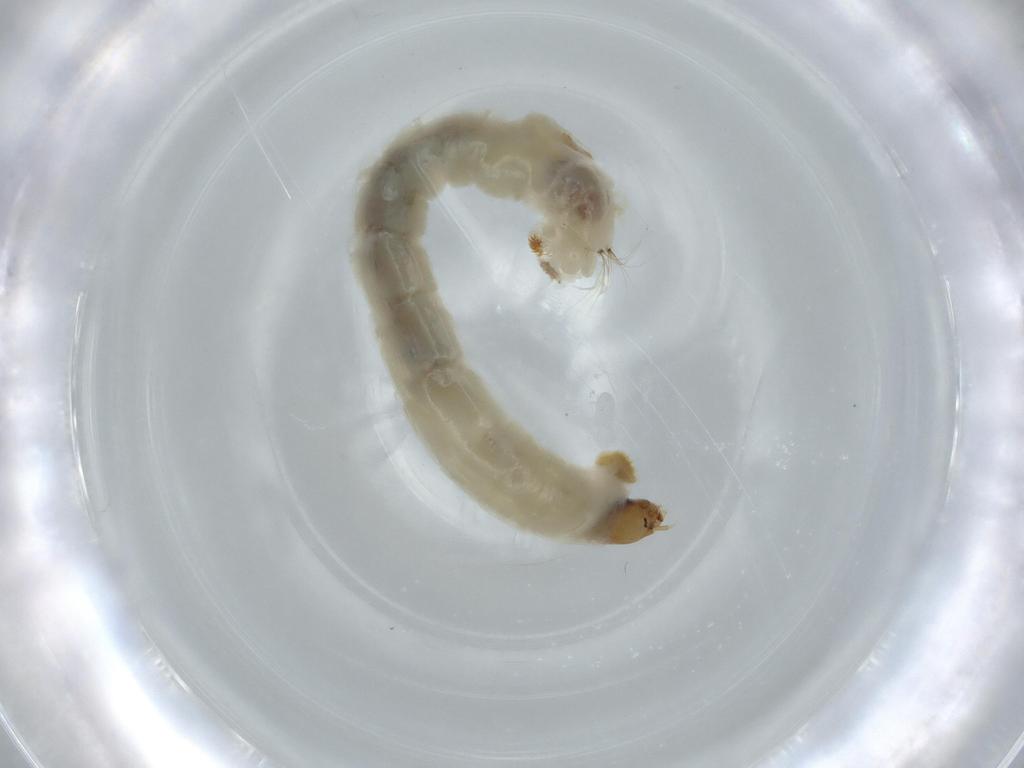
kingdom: Animalia
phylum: Arthropoda
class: Insecta
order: Diptera
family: Chironomidae
